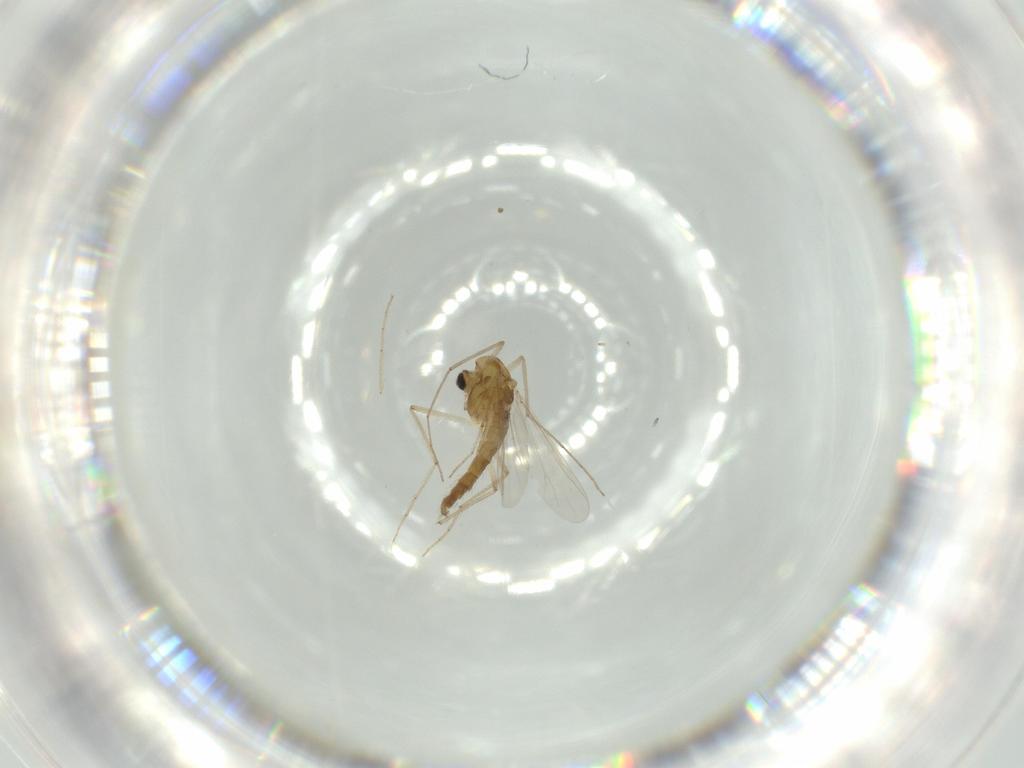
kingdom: Animalia
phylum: Arthropoda
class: Insecta
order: Diptera
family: Chironomidae
